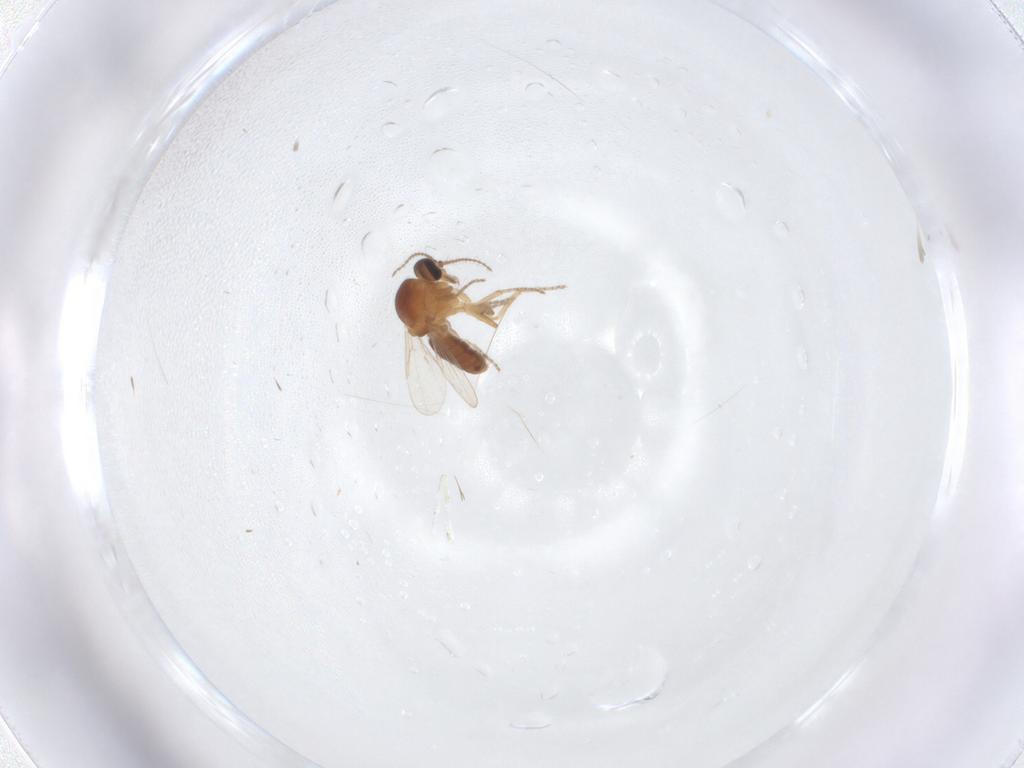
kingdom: Animalia
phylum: Arthropoda
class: Insecta
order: Diptera
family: Ceratopogonidae
